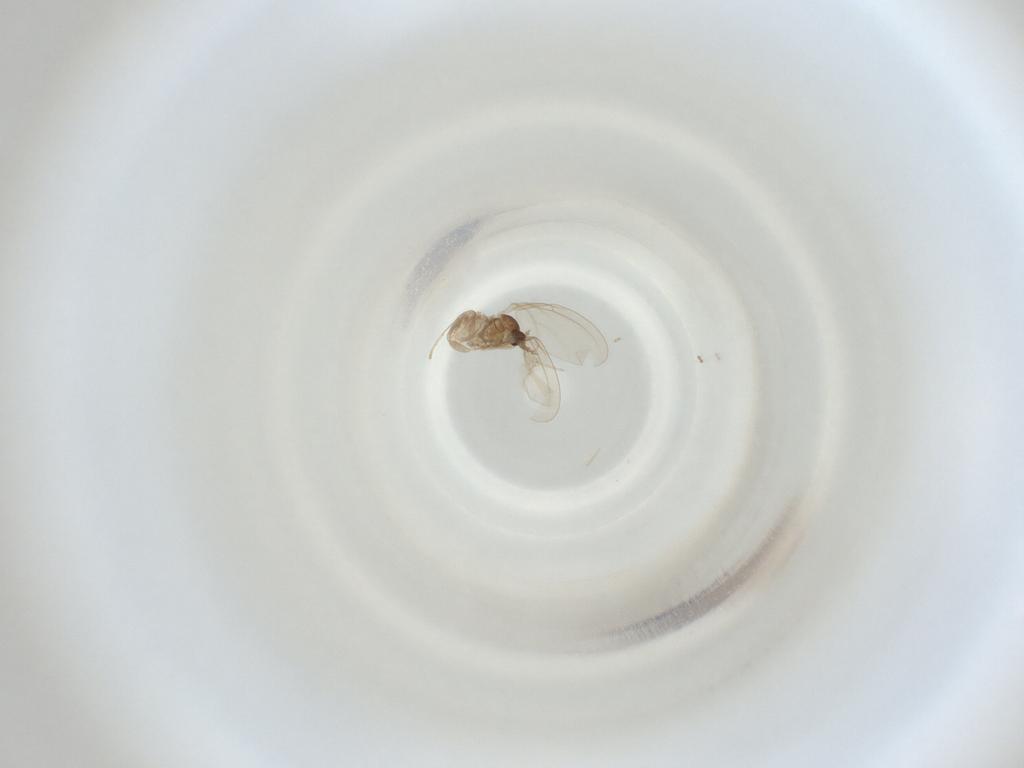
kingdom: Animalia
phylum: Arthropoda
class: Insecta
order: Diptera
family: Cecidomyiidae
